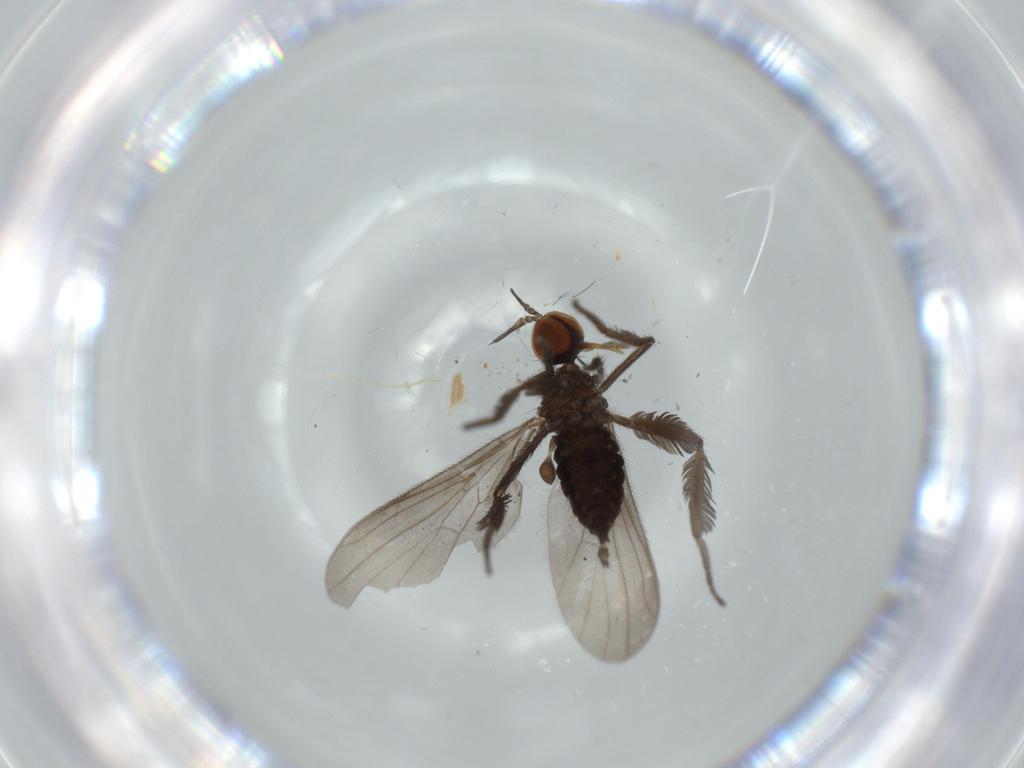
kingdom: Animalia
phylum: Arthropoda
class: Insecta
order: Diptera
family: Empididae
